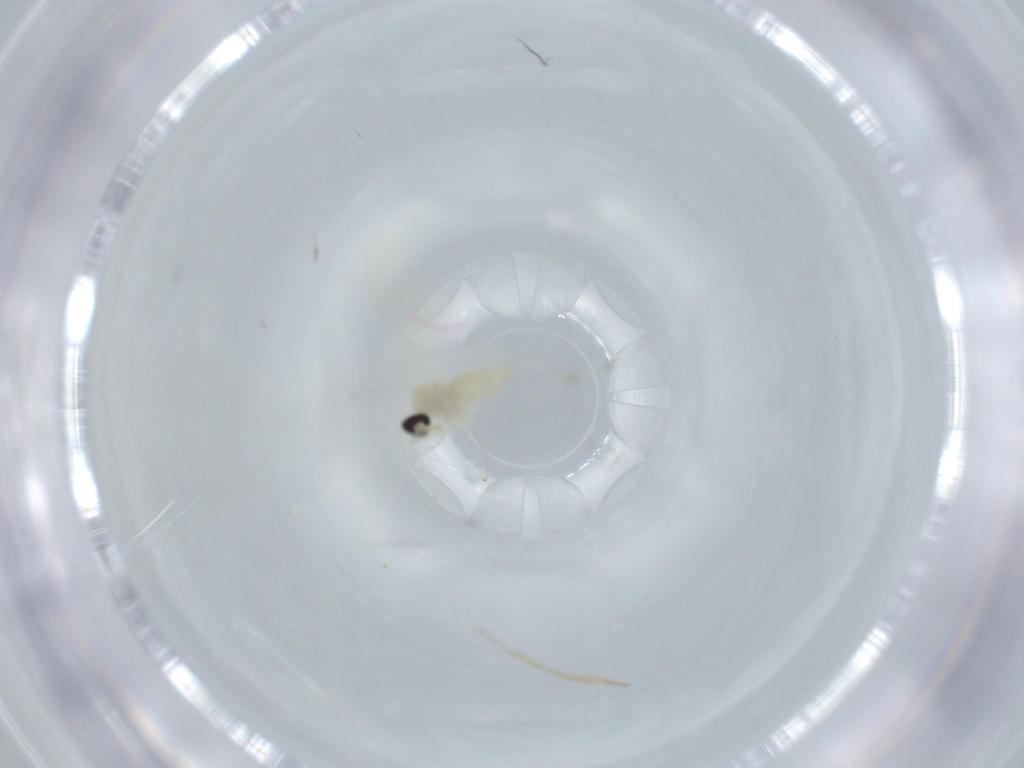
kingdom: Animalia
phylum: Arthropoda
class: Insecta
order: Diptera
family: Cecidomyiidae
